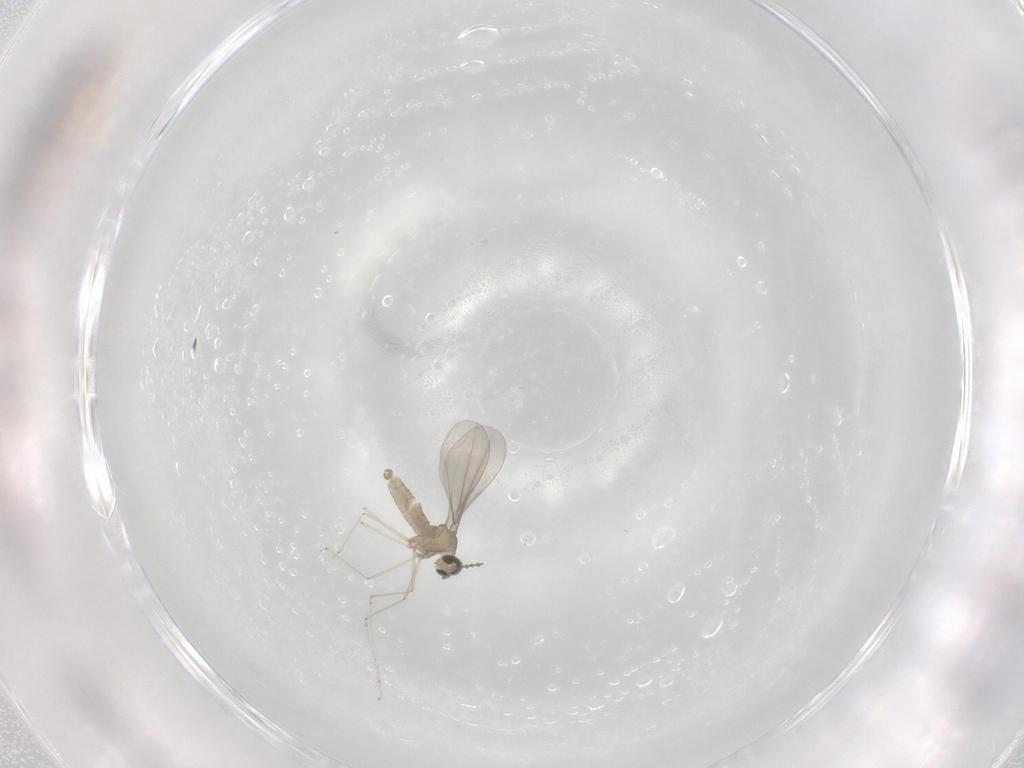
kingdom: Animalia
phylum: Arthropoda
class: Insecta
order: Diptera
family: Cecidomyiidae
